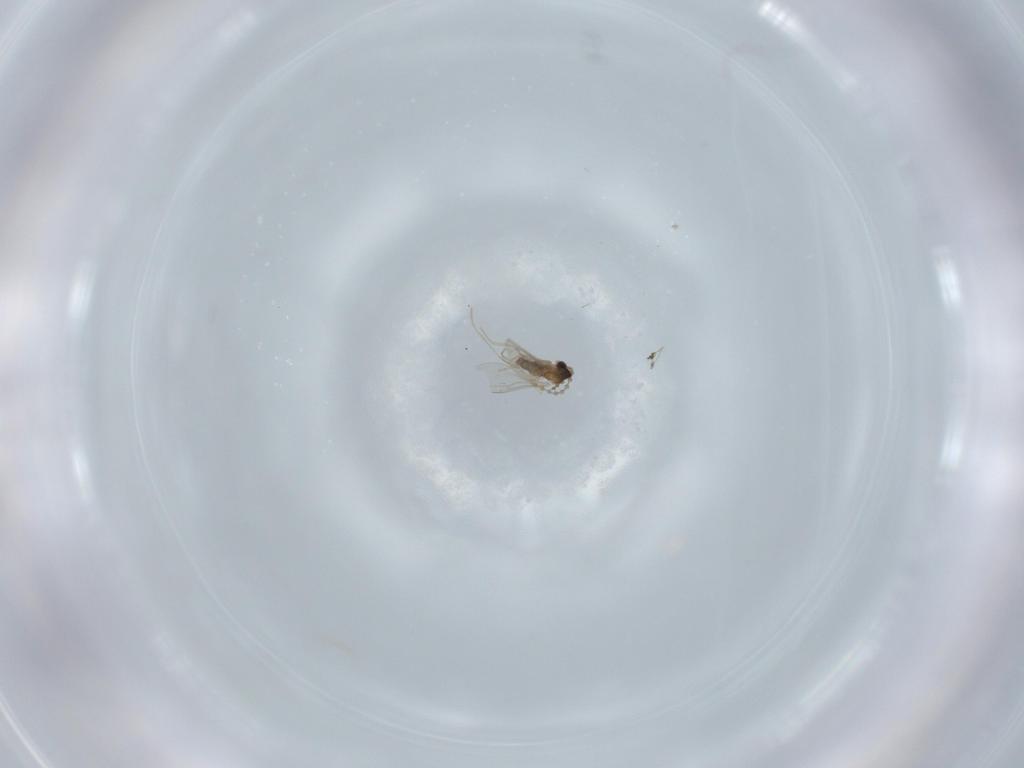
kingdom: Animalia
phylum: Arthropoda
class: Insecta
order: Diptera
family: Cecidomyiidae
